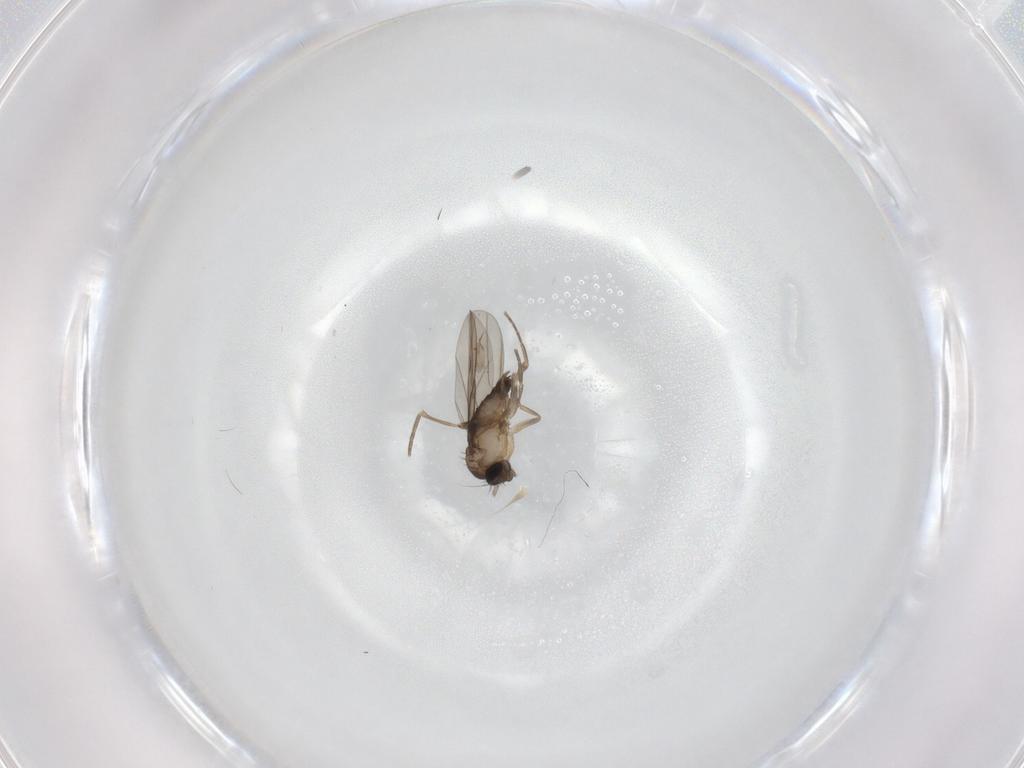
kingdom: Animalia
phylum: Arthropoda
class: Insecta
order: Diptera
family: Phoridae
